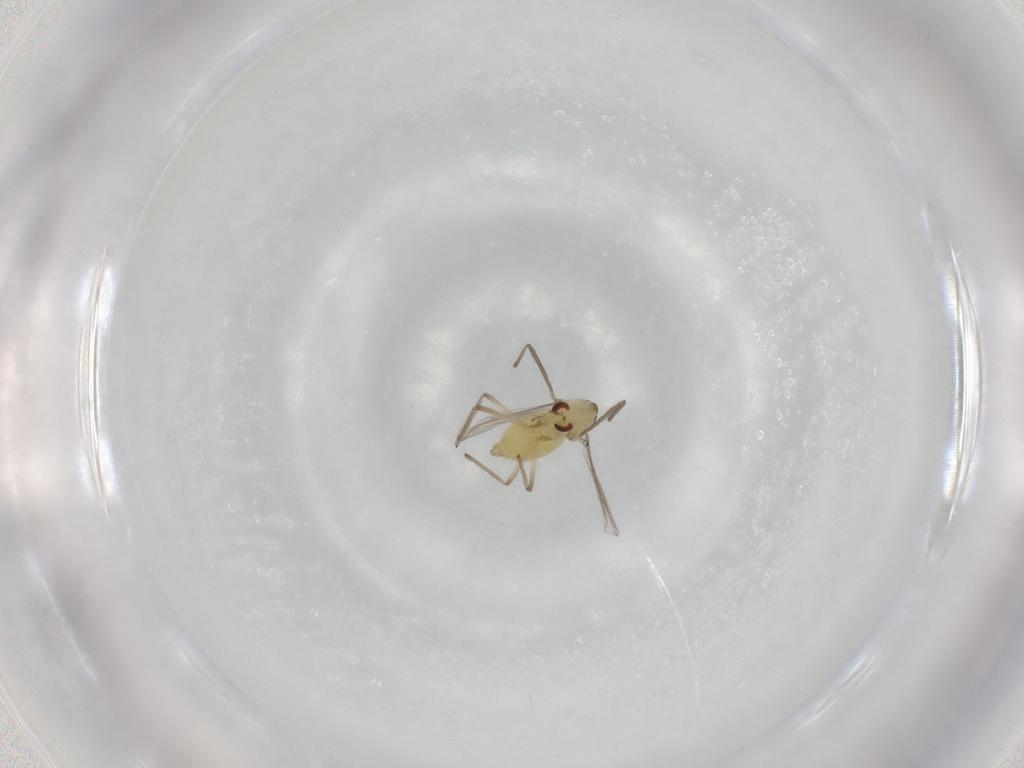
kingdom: Animalia
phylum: Arthropoda
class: Insecta
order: Diptera
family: Chironomidae
